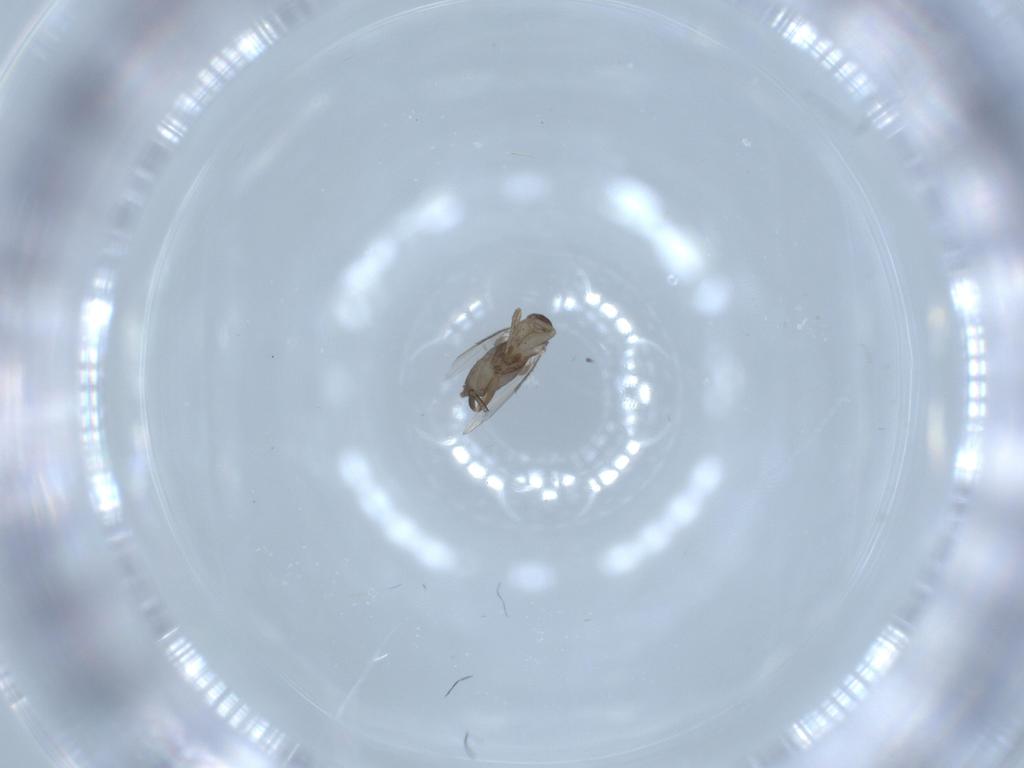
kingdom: Animalia
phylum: Arthropoda
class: Insecta
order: Diptera
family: Phoridae
